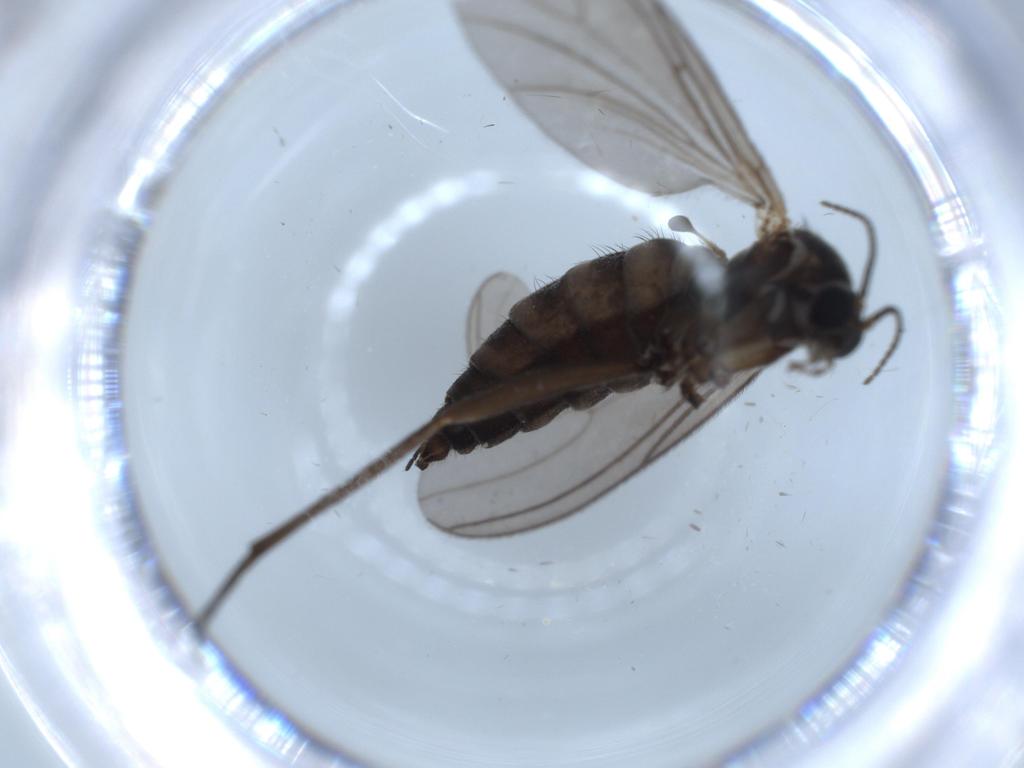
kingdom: Animalia
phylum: Arthropoda
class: Insecta
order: Diptera
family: Sciaridae
